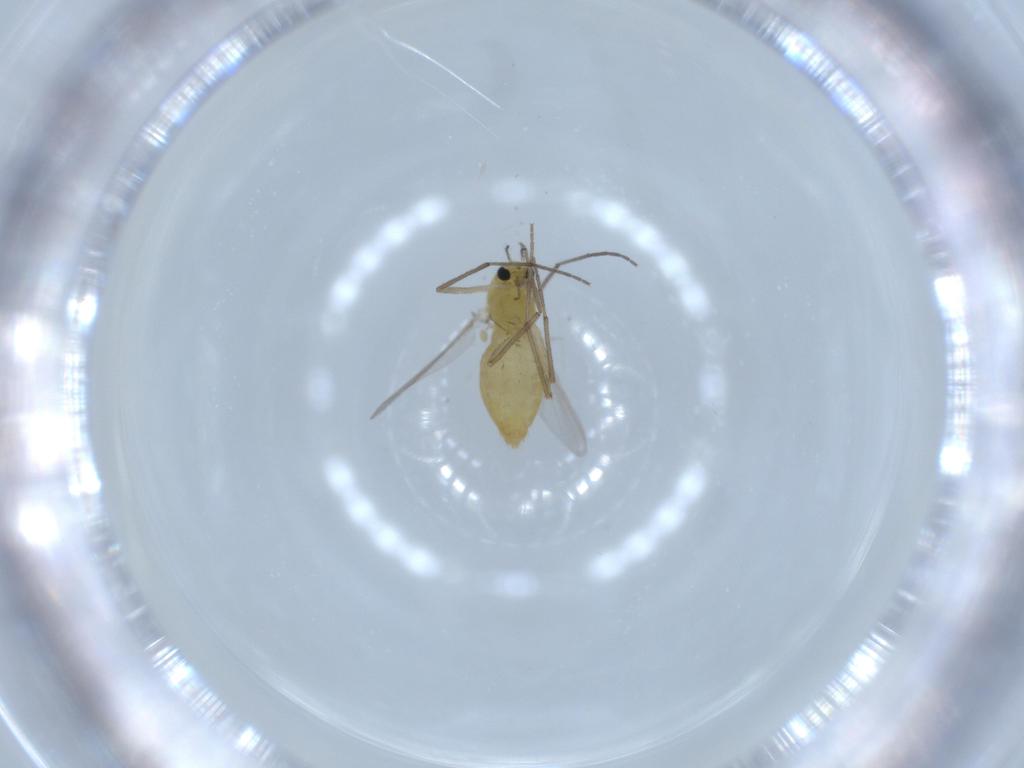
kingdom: Animalia
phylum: Arthropoda
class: Insecta
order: Diptera
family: Chironomidae
